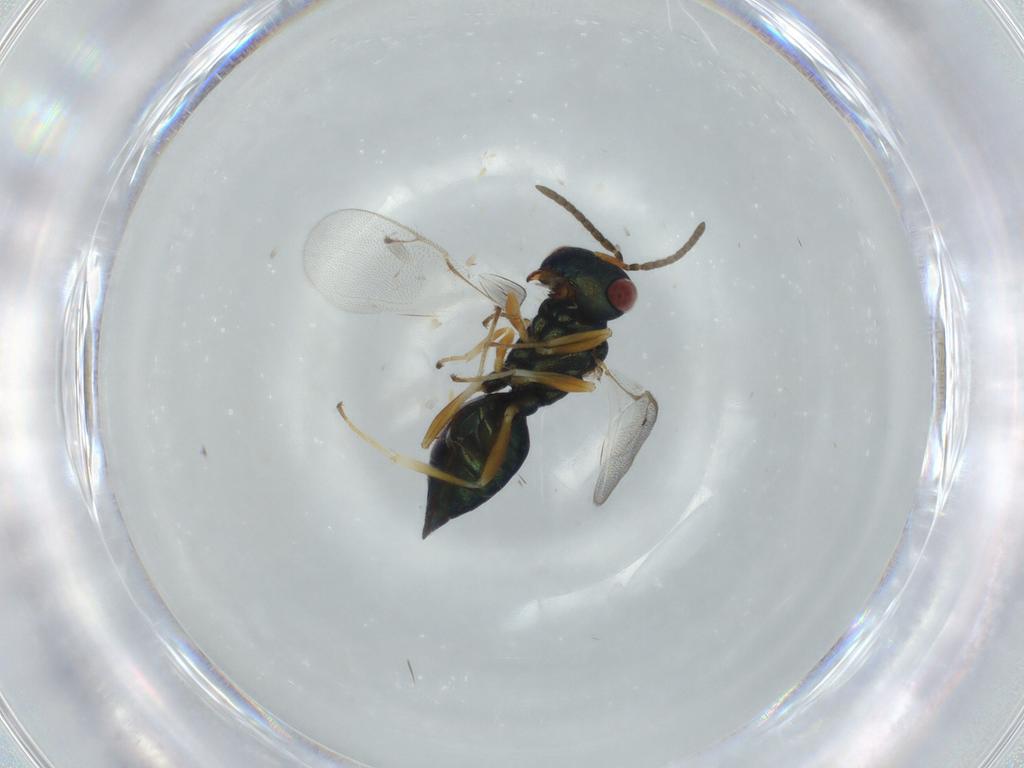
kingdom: Animalia
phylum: Arthropoda
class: Insecta
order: Hymenoptera
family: Pteromalidae
